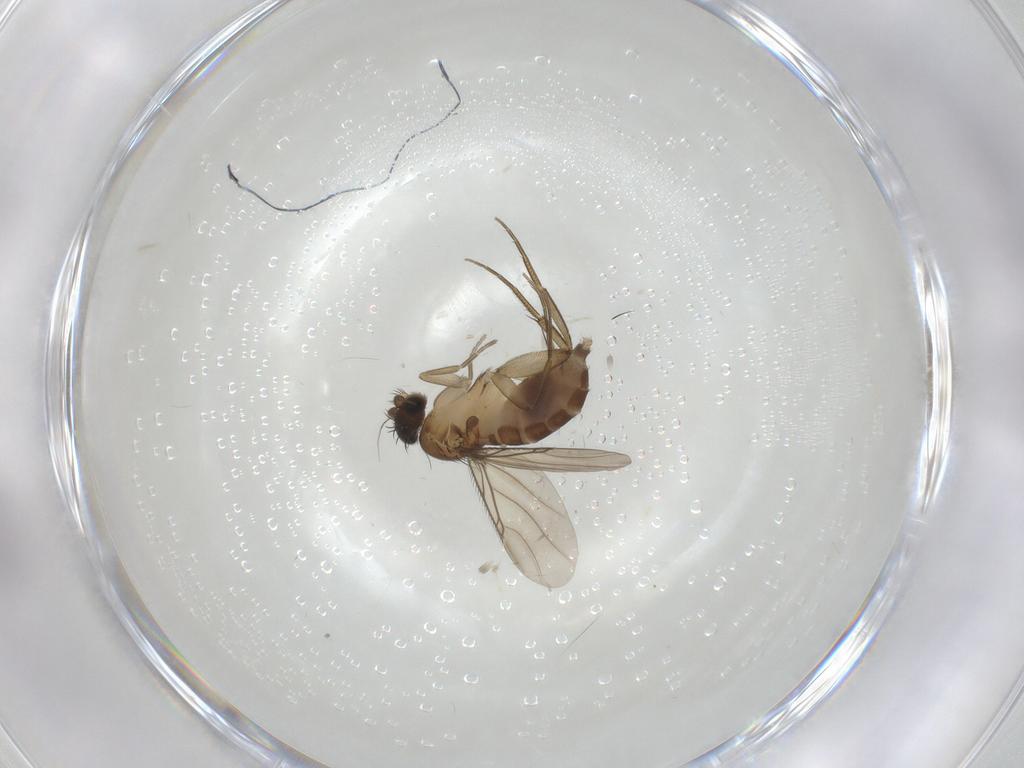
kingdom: Animalia
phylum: Arthropoda
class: Insecta
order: Diptera
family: Phoridae
